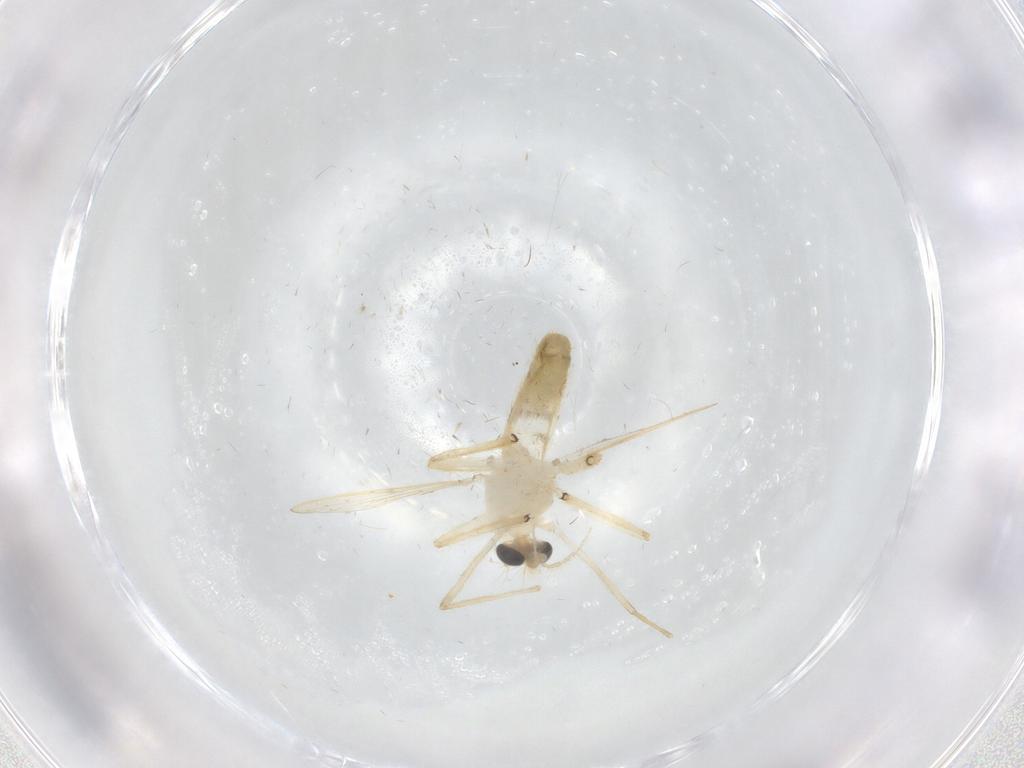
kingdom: Animalia
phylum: Arthropoda
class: Insecta
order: Diptera
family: Chironomidae
